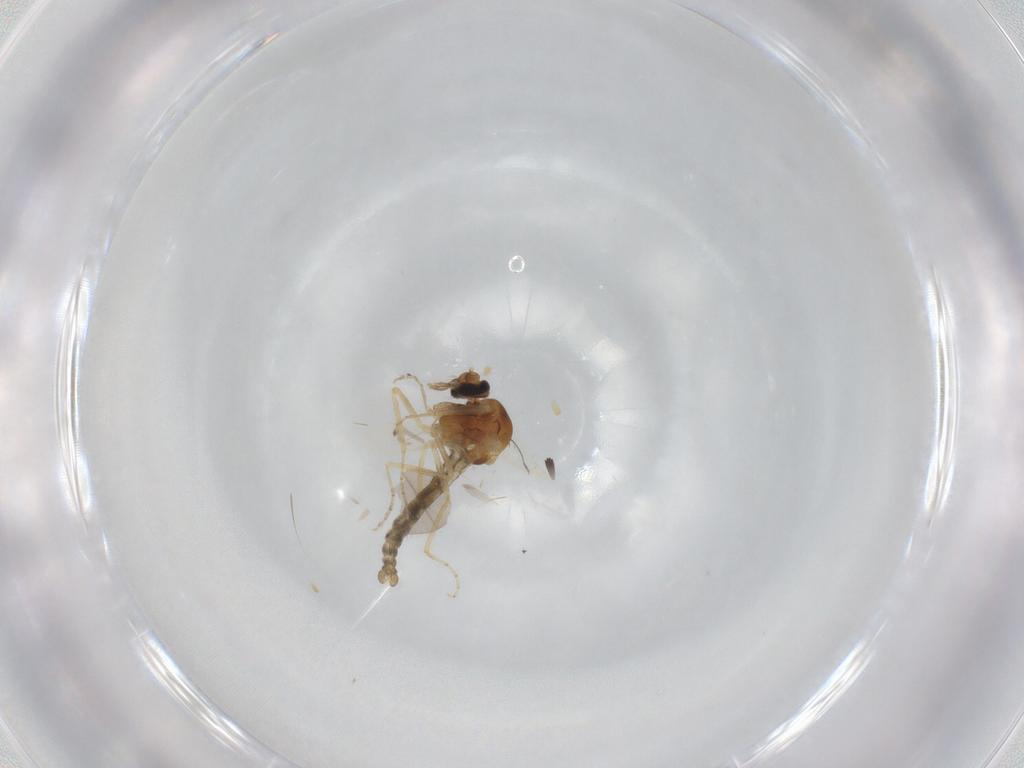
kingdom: Animalia
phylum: Arthropoda
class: Insecta
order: Diptera
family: Ceratopogonidae
